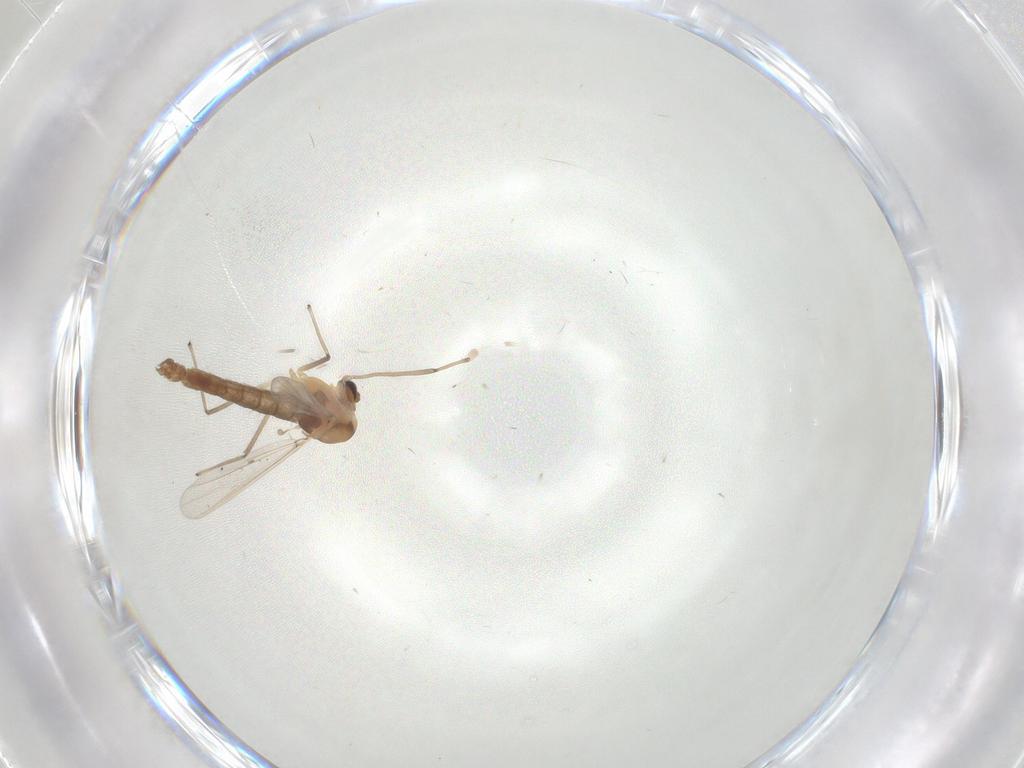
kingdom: Animalia
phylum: Arthropoda
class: Insecta
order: Diptera
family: Chironomidae
